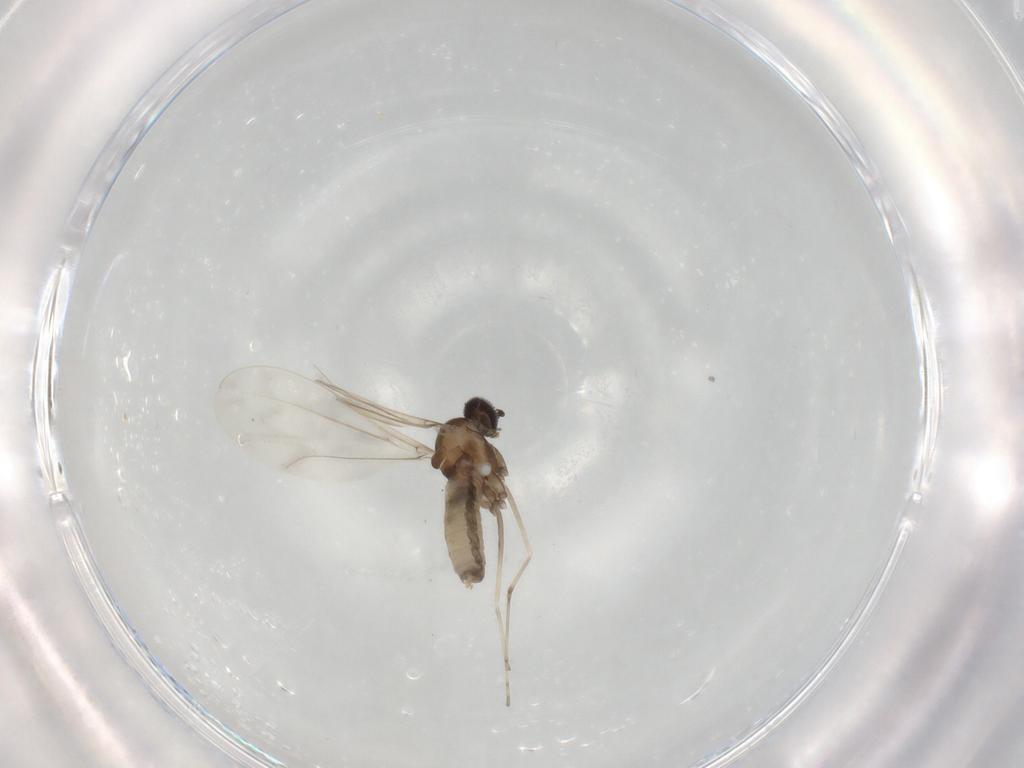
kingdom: Animalia
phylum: Arthropoda
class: Insecta
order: Diptera
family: Cecidomyiidae
